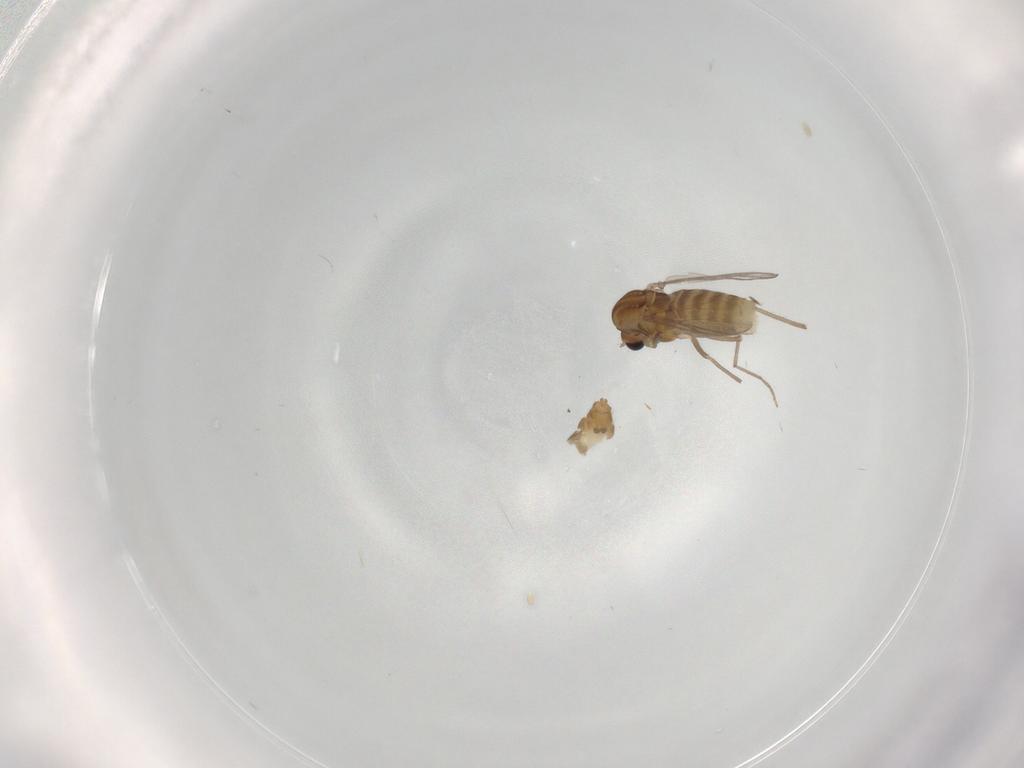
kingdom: Animalia
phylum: Arthropoda
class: Insecta
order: Diptera
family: Chironomidae
